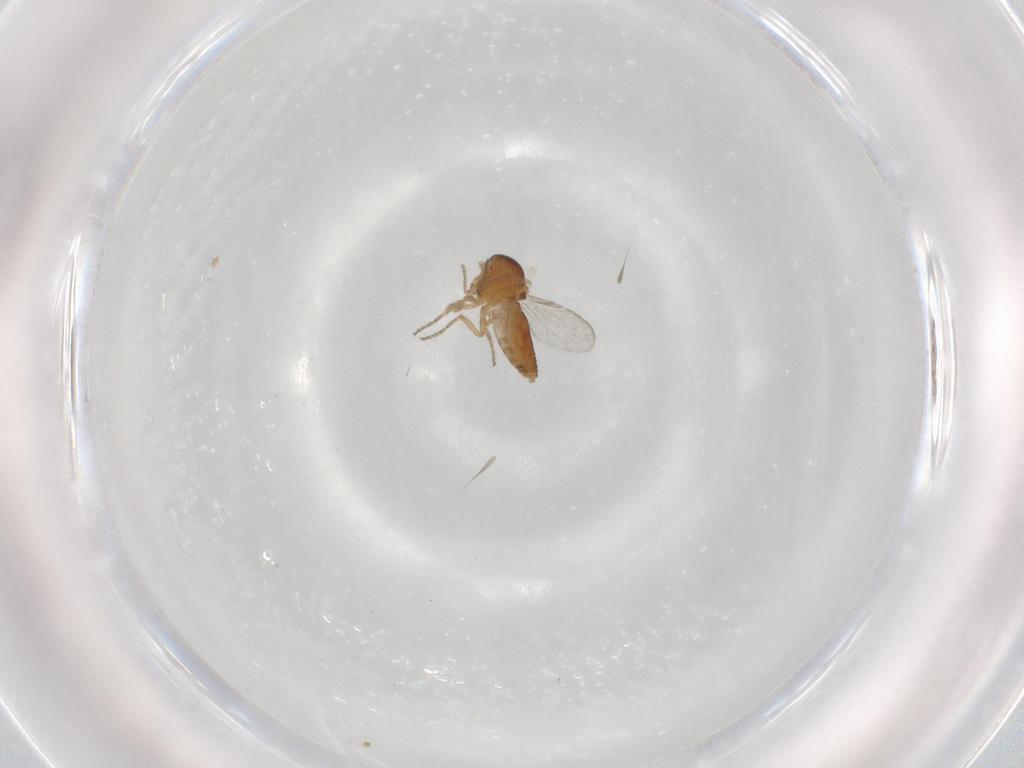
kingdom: Animalia
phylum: Arthropoda
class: Insecta
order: Diptera
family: Ceratopogonidae
